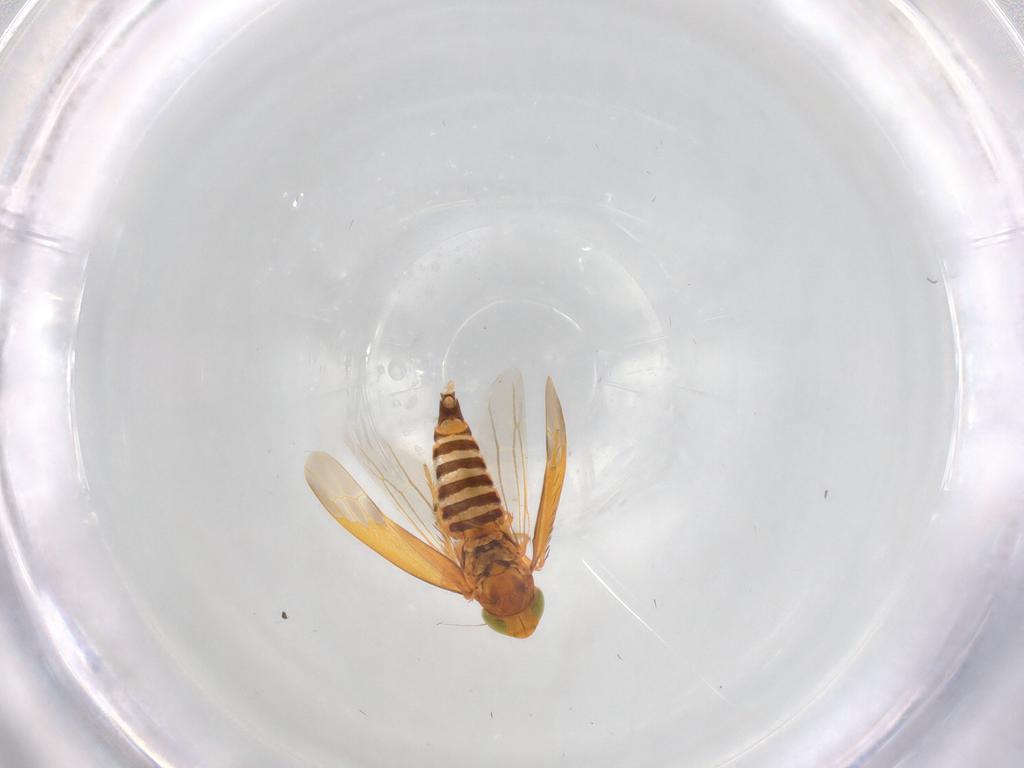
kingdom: Animalia
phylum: Arthropoda
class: Insecta
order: Hemiptera
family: Cicadellidae
